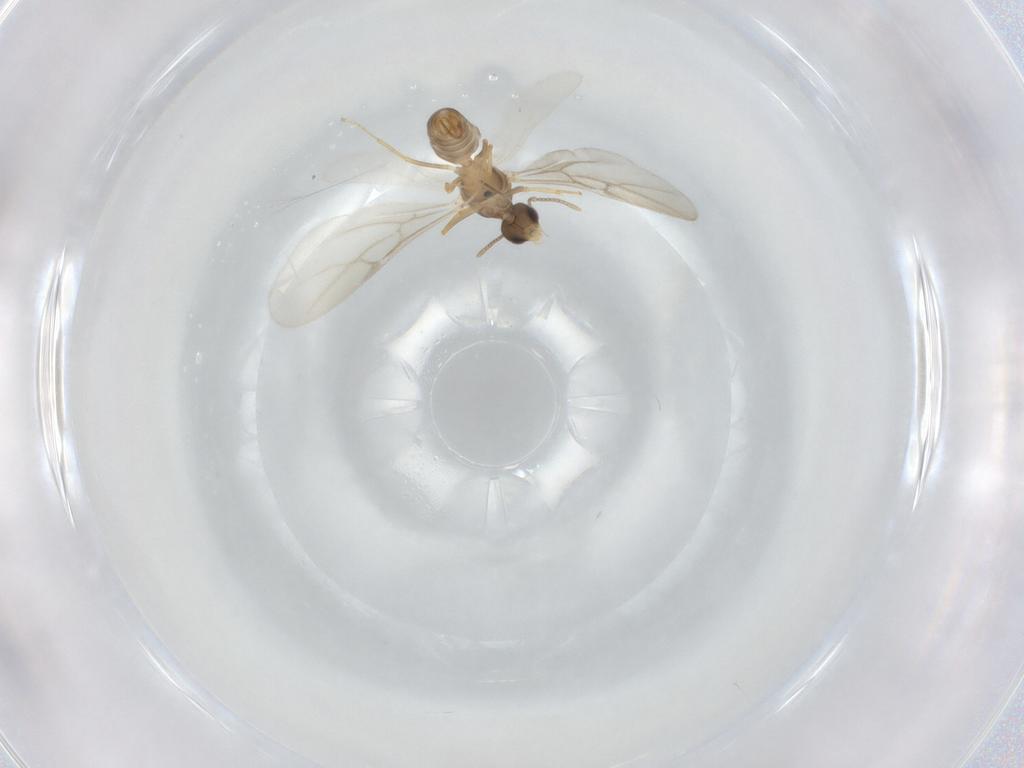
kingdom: Animalia
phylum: Arthropoda
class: Insecta
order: Hymenoptera
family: Formicidae
